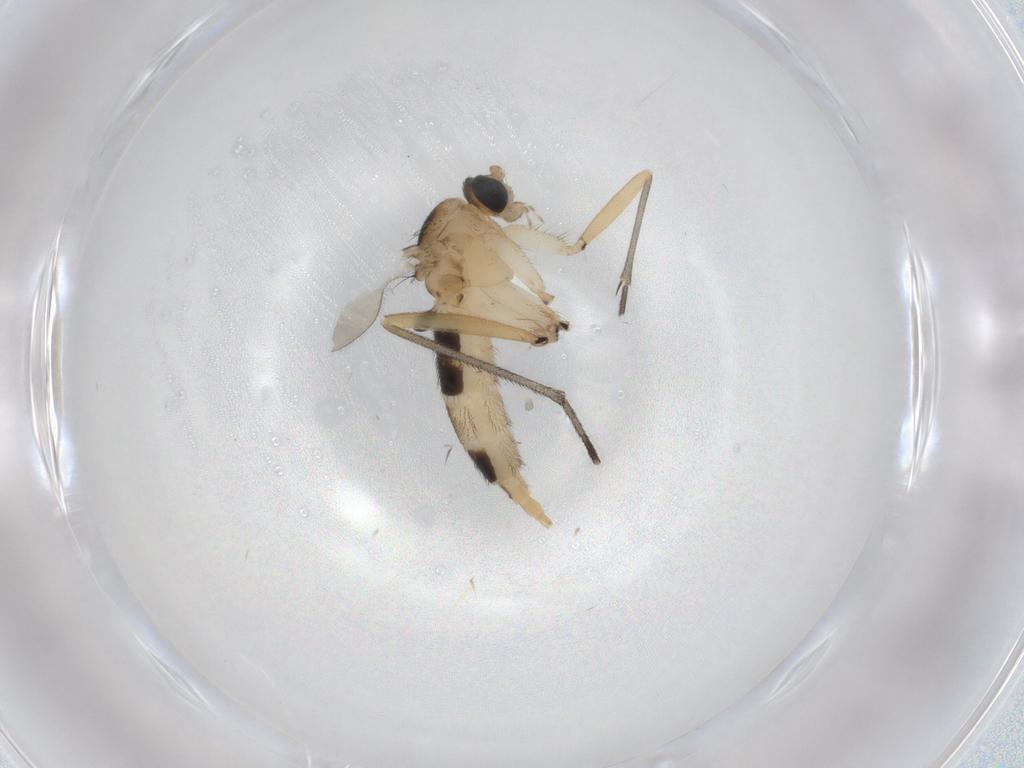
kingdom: Animalia
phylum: Arthropoda
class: Insecta
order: Diptera
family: Sciaridae
